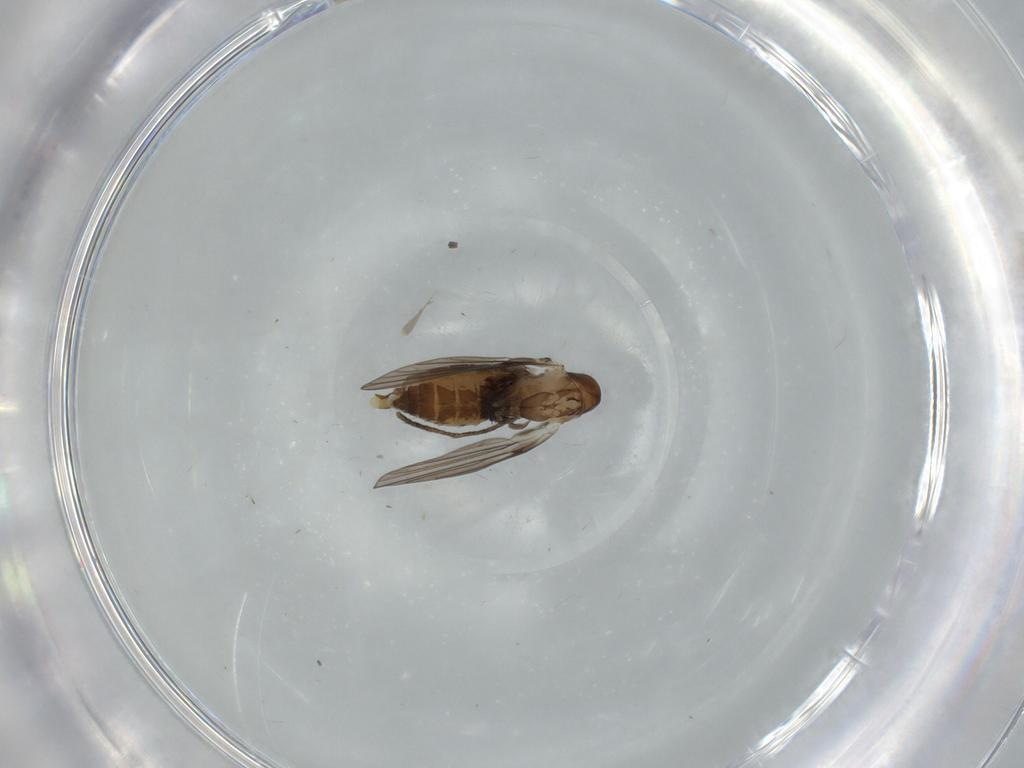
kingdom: Animalia
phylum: Arthropoda
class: Insecta
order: Diptera
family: Psychodidae
